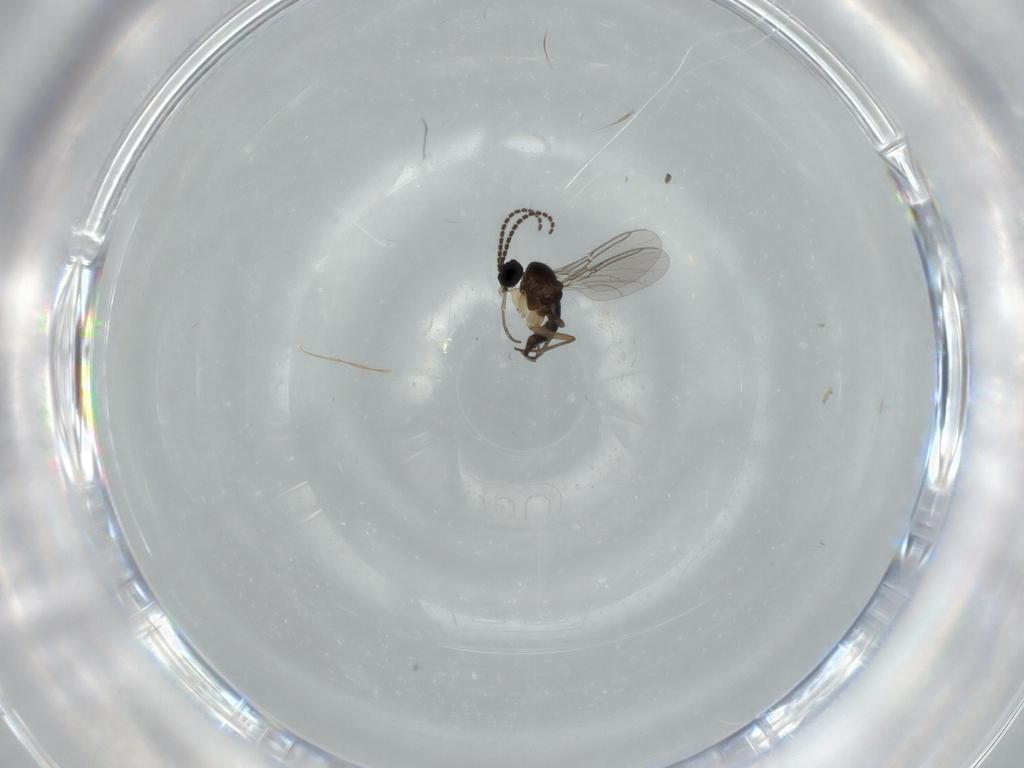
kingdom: Animalia
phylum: Arthropoda
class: Insecta
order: Diptera
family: Sciaridae
